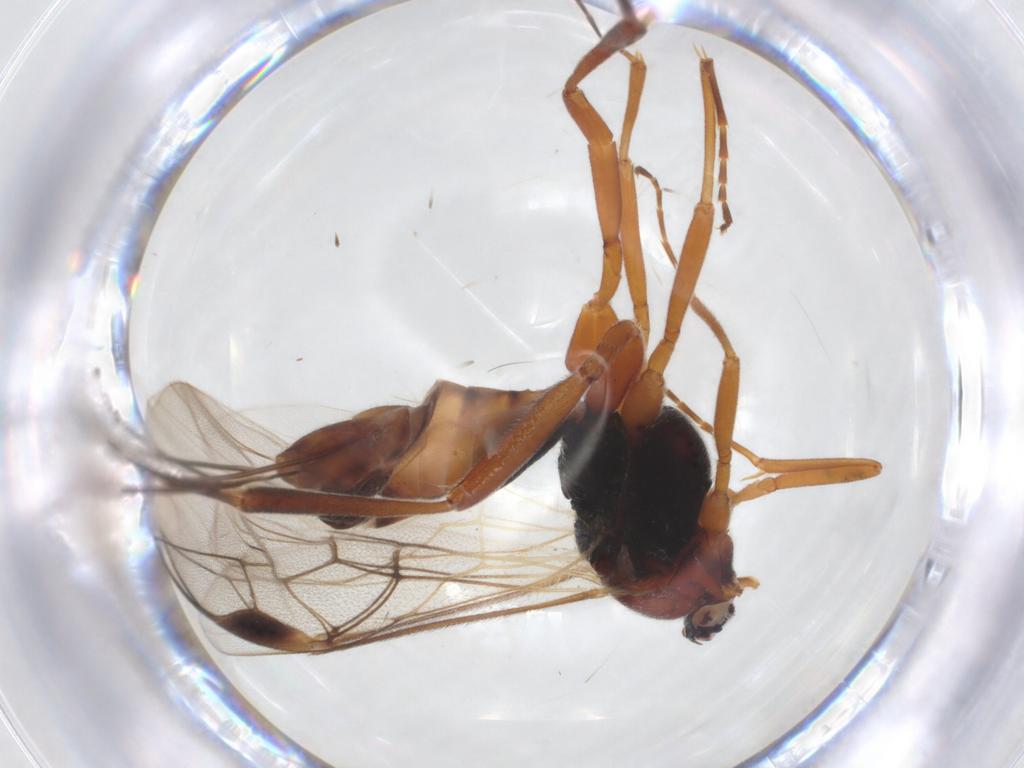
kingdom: Animalia
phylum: Arthropoda
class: Insecta
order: Hymenoptera
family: Braconidae
